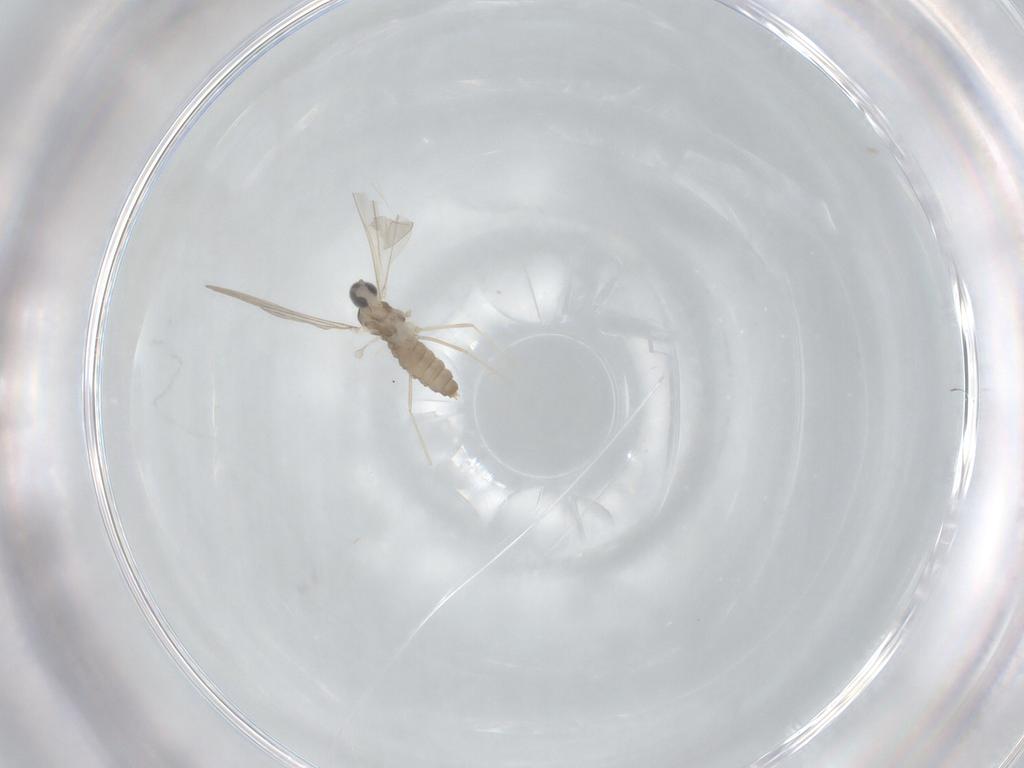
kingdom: Animalia
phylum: Arthropoda
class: Insecta
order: Diptera
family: Cecidomyiidae
